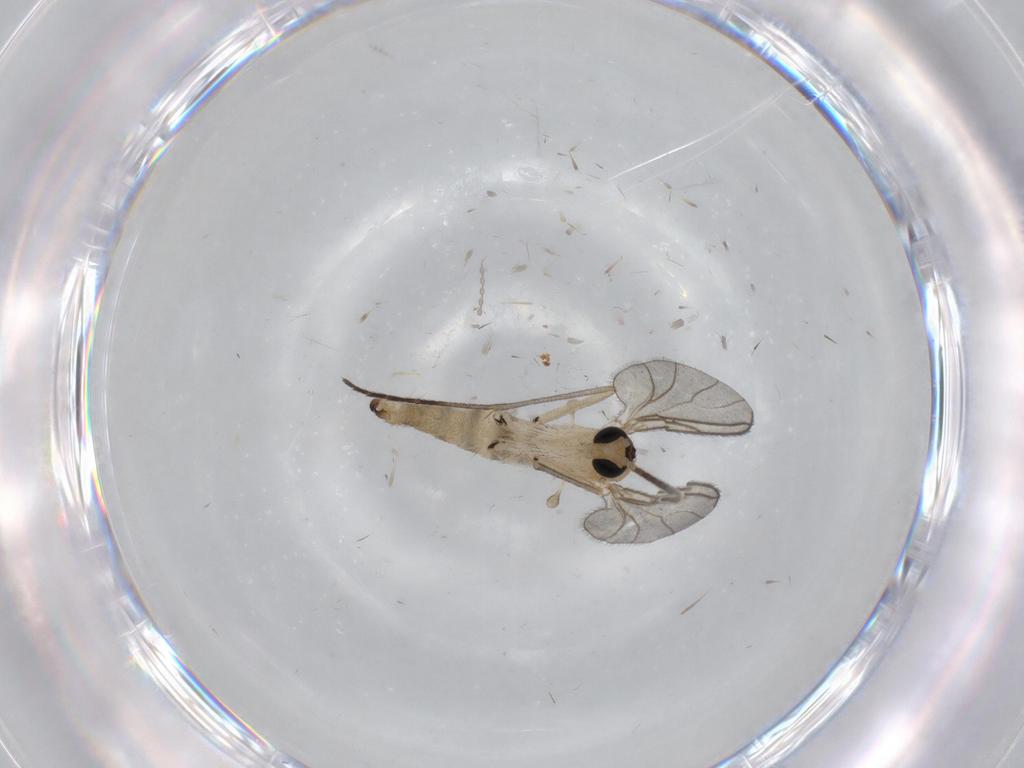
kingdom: Animalia
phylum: Arthropoda
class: Insecta
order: Diptera
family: Sciaridae
